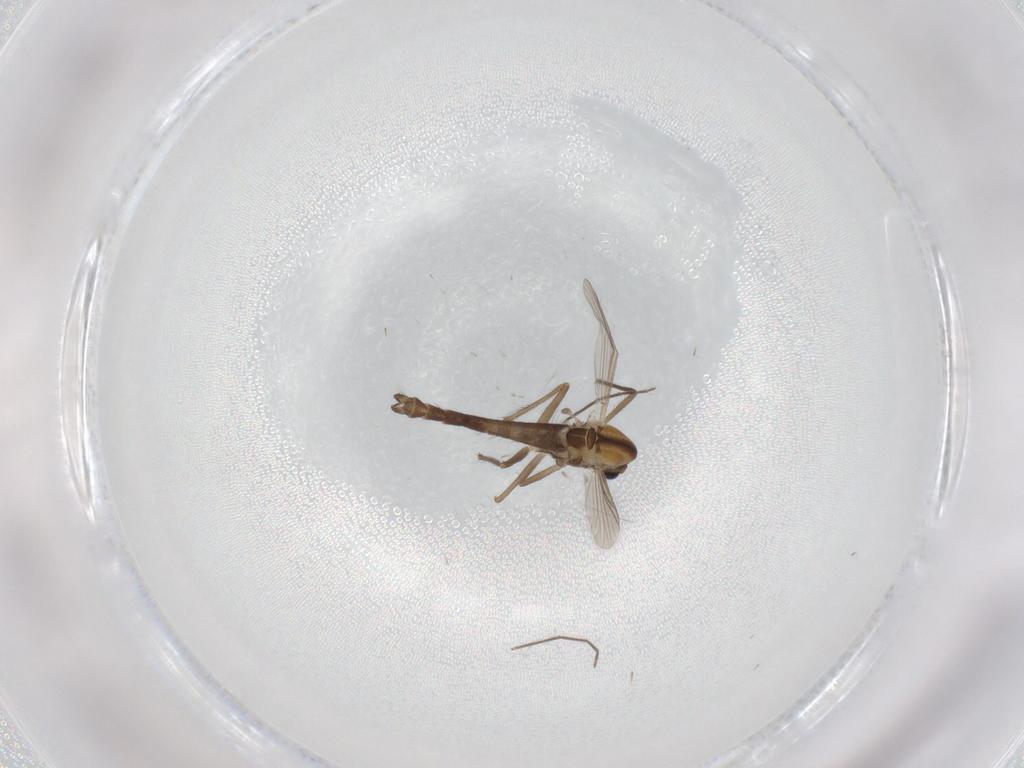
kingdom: Animalia
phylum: Arthropoda
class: Insecta
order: Diptera
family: Chironomidae
